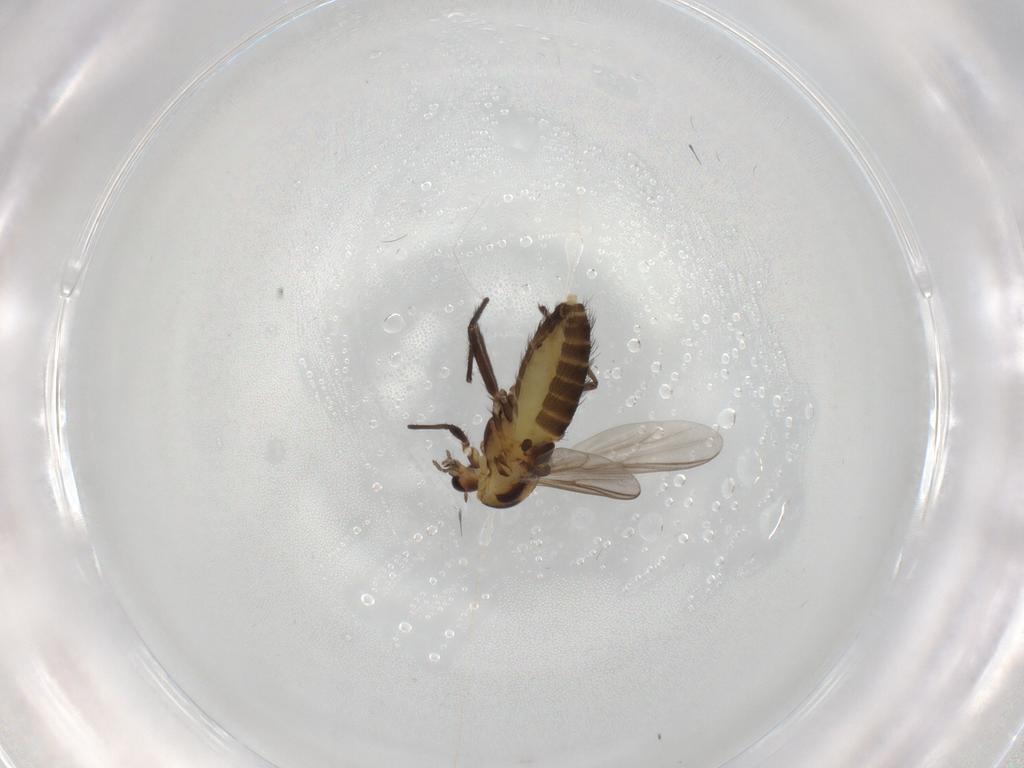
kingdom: Animalia
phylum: Arthropoda
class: Insecta
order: Diptera
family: Chironomidae
